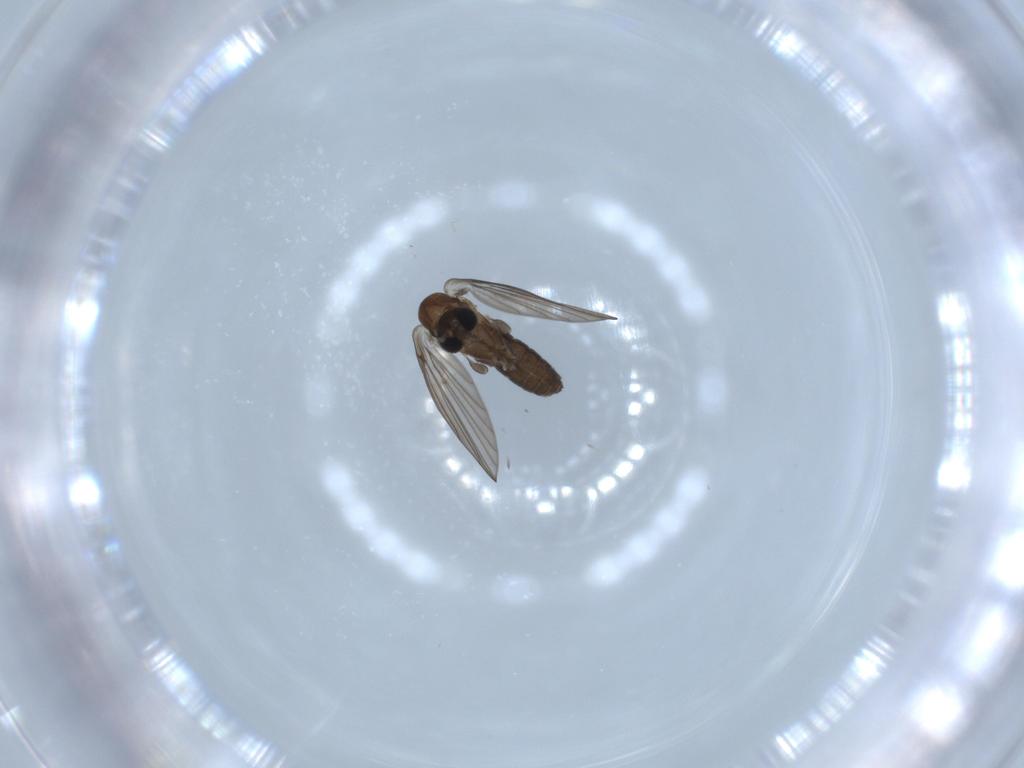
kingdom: Animalia
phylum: Arthropoda
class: Insecta
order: Diptera
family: Psychodidae
